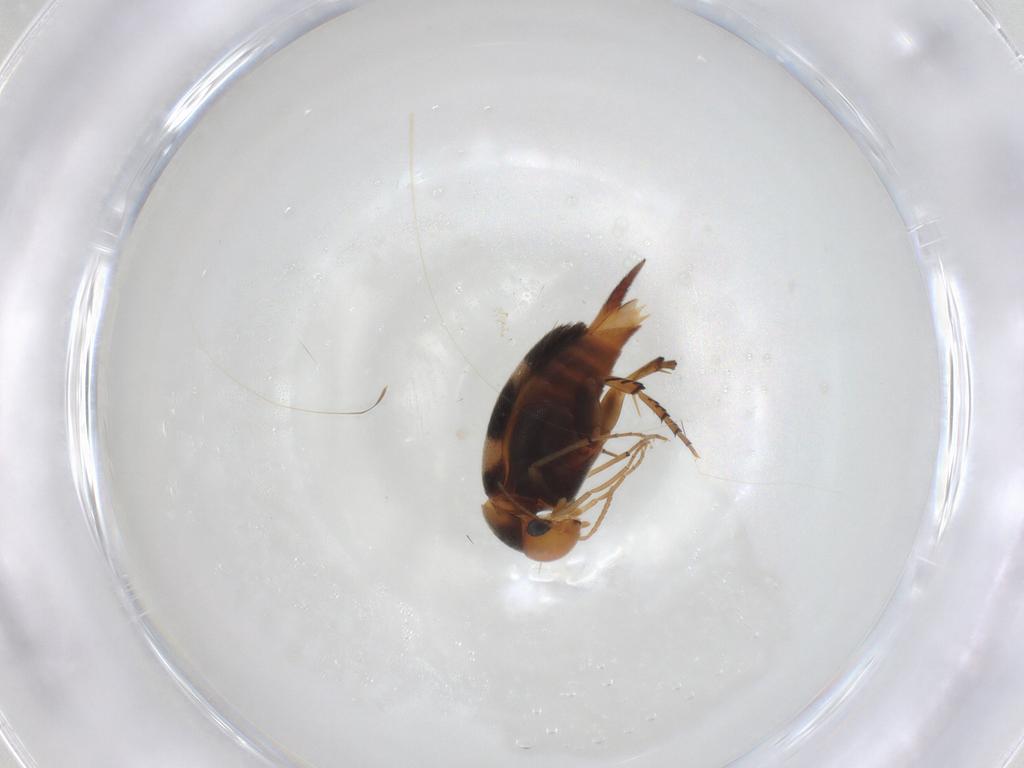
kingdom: Animalia
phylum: Arthropoda
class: Insecta
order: Coleoptera
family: Mordellidae
